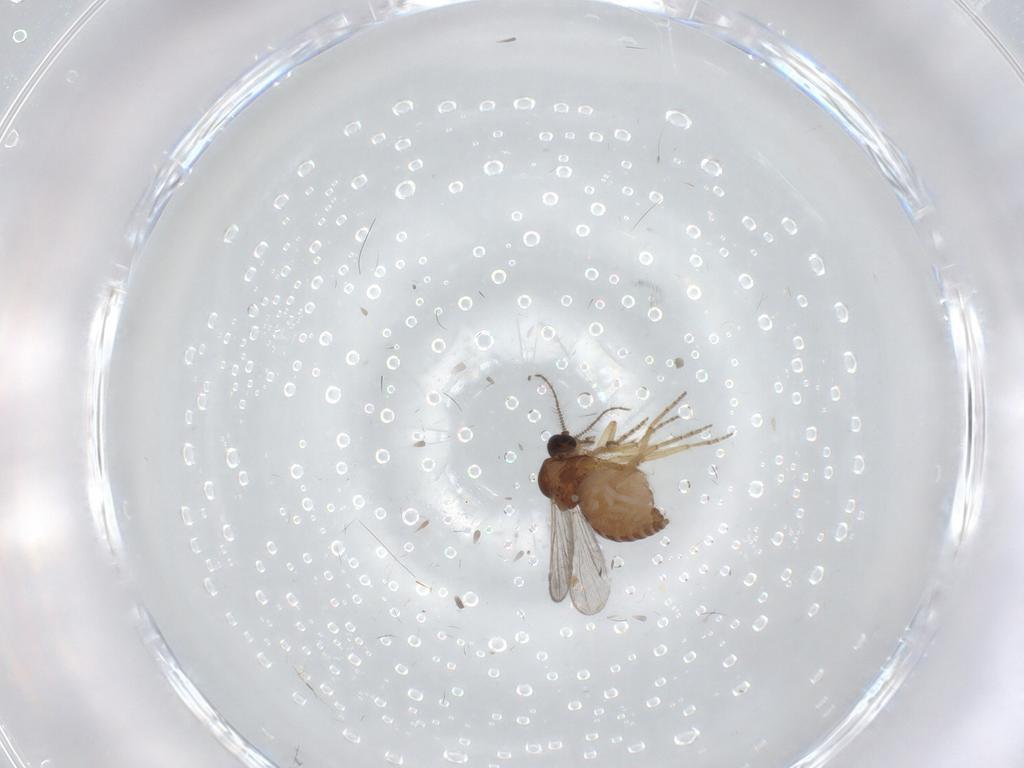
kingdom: Animalia
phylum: Arthropoda
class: Insecta
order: Diptera
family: Ceratopogonidae
